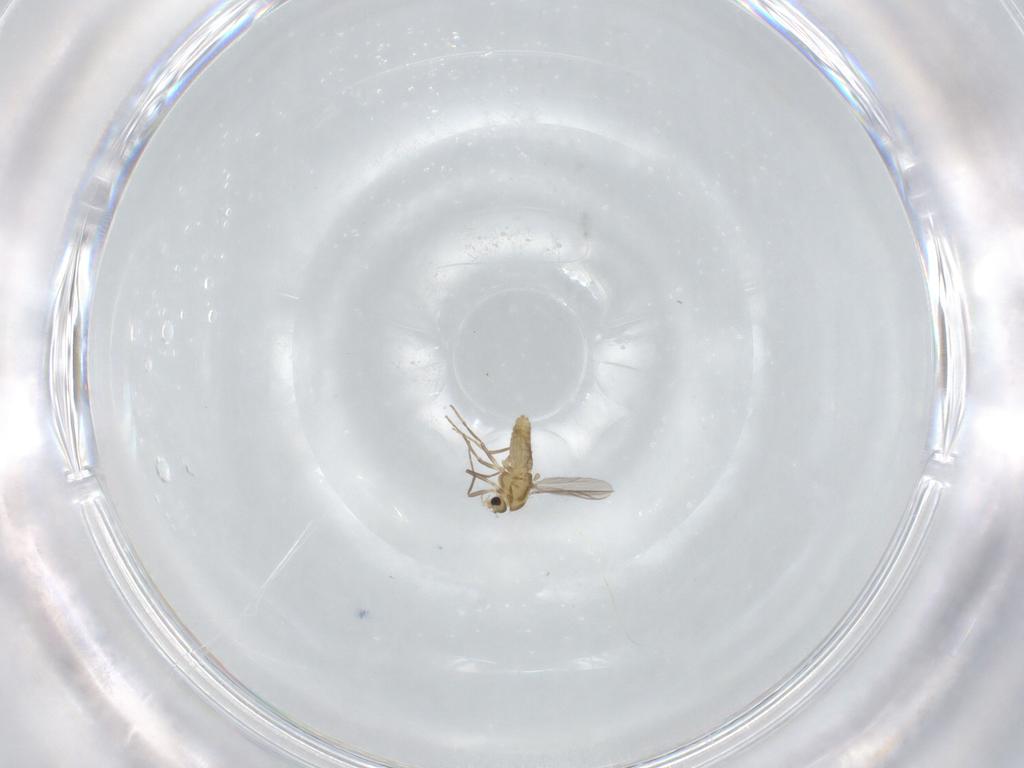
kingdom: Animalia
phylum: Arthropoda
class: Insecta
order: Diptera
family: Chironomidae
